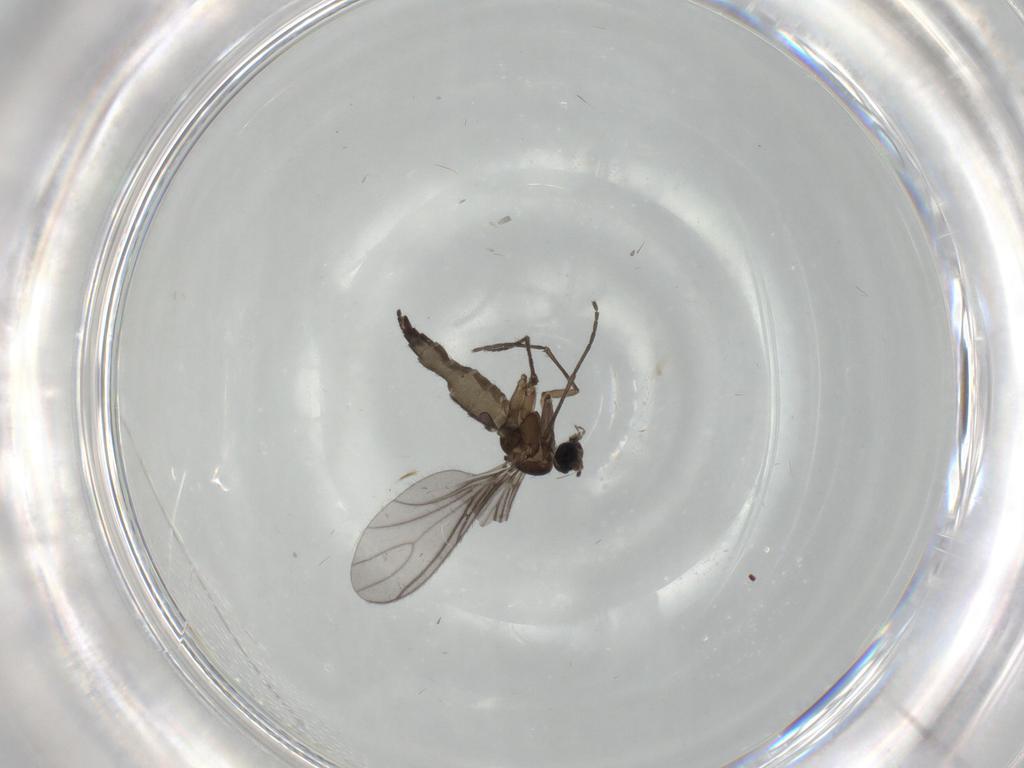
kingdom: Animalia
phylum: Arthropoda
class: Insecta
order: Diptera
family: Sciaridae
